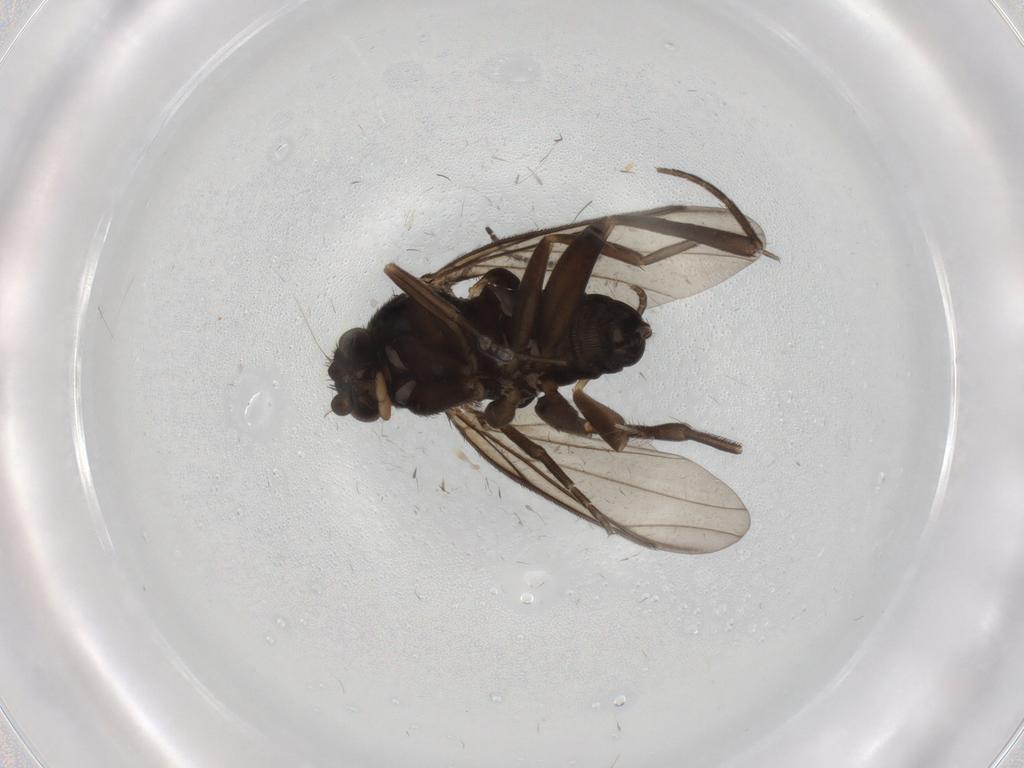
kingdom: Animalia
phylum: Arthropoda
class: Insecta
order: Diptera
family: Phoridae
